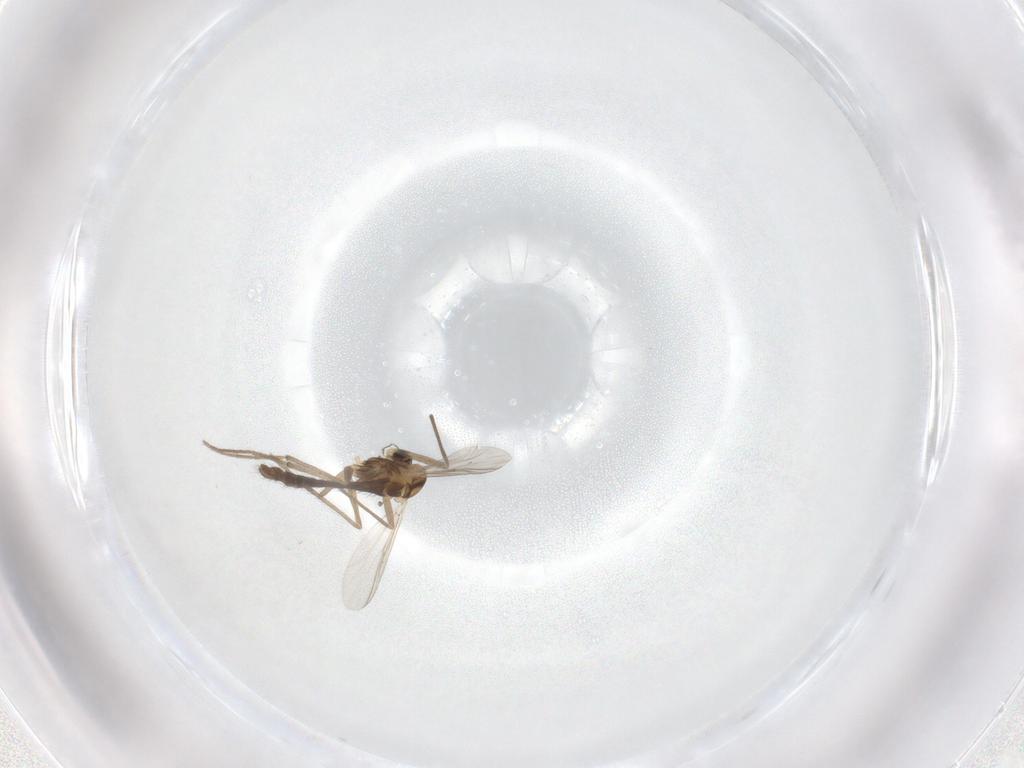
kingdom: Animalia
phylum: Arthropoda
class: Insecta
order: Diptera
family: Chironomidae
